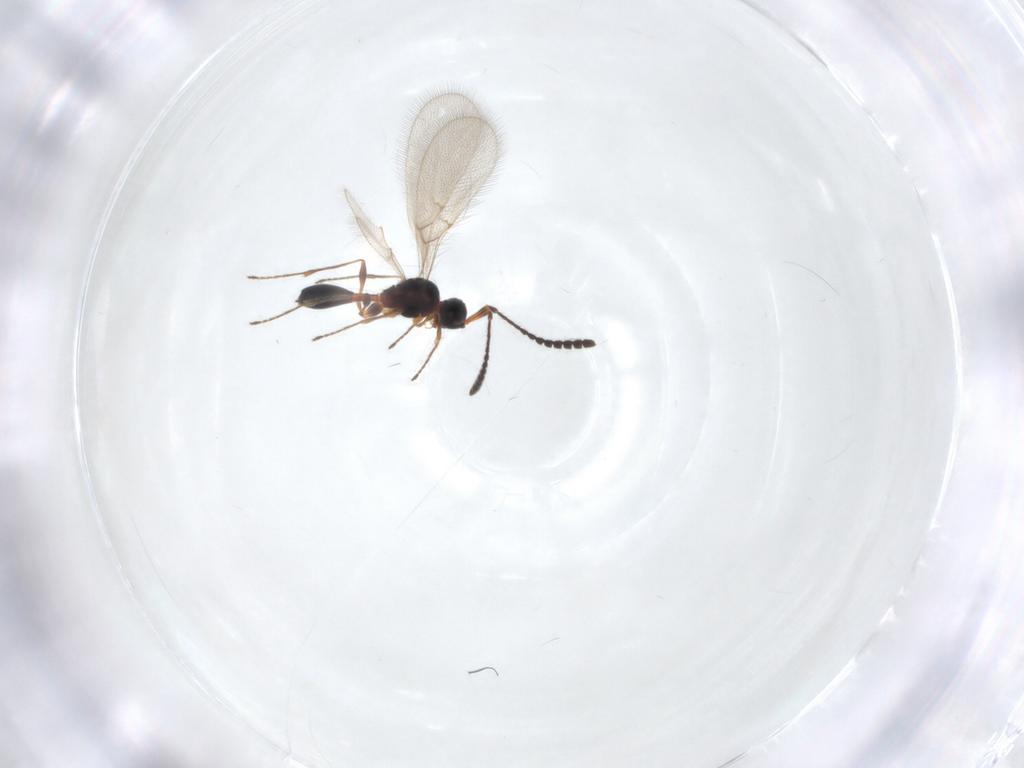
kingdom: Animalia
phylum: Arthropoda
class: Insecta
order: Hymenoptera
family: Diapriidae
